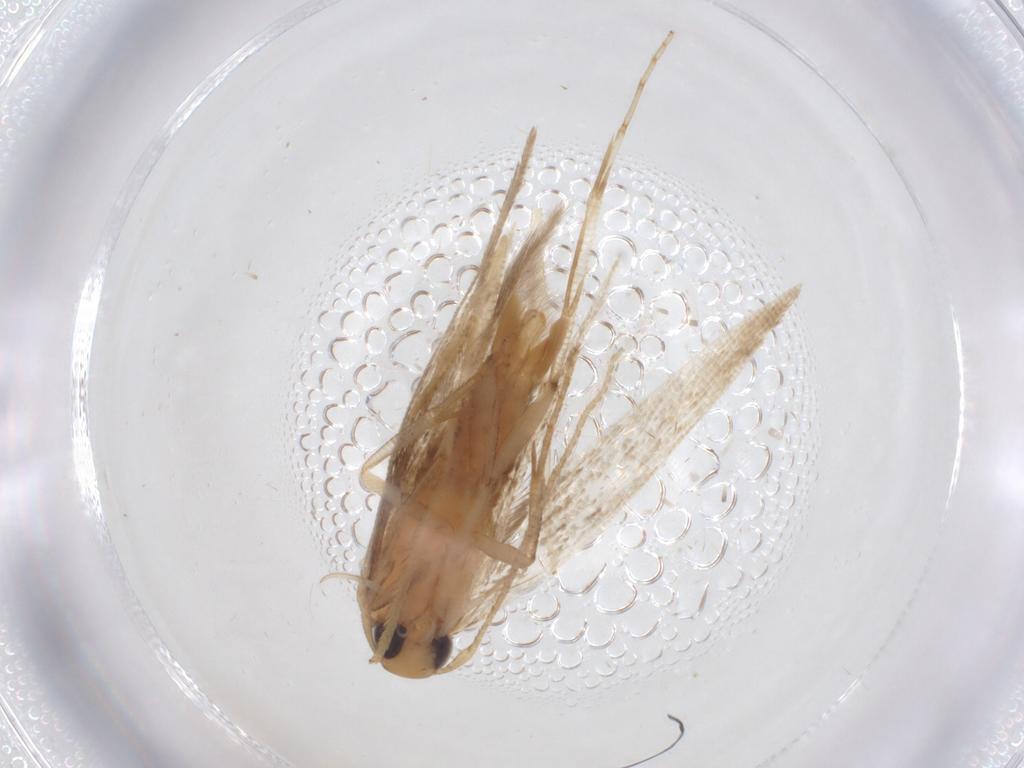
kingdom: Animalia
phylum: Arthropoda
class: Insecta
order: Lepidoptera
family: Cosmopterigidae
